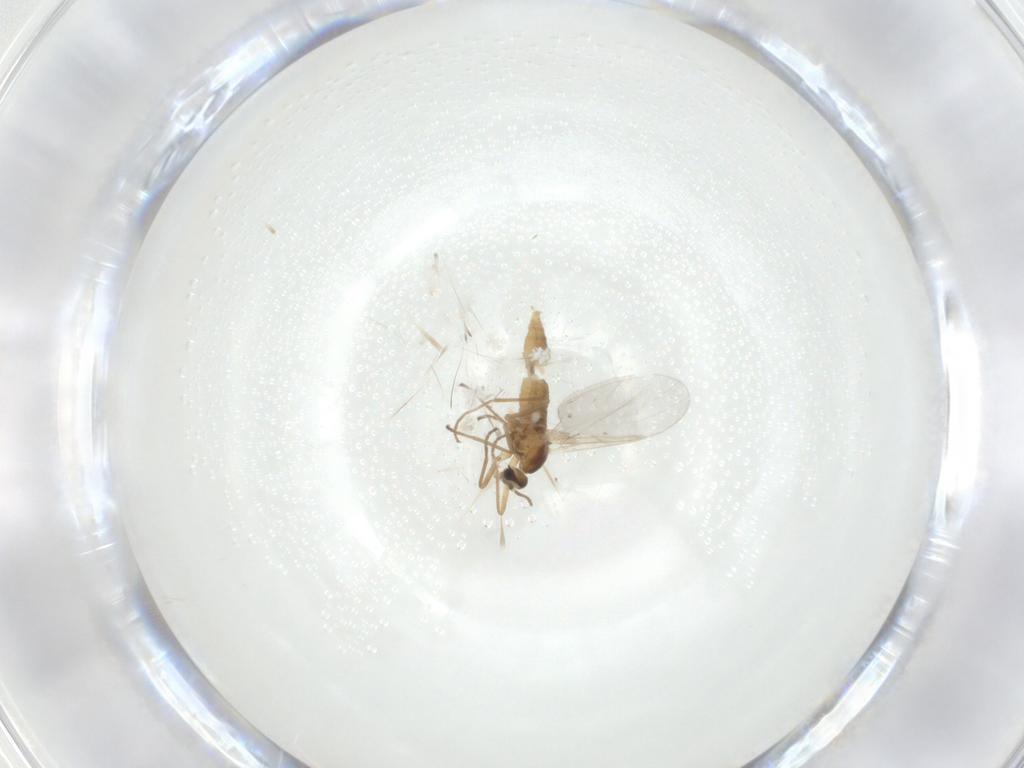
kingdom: Animalia
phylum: Arthropoda
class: Insecta
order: Diptera
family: Cecidomyiidae
